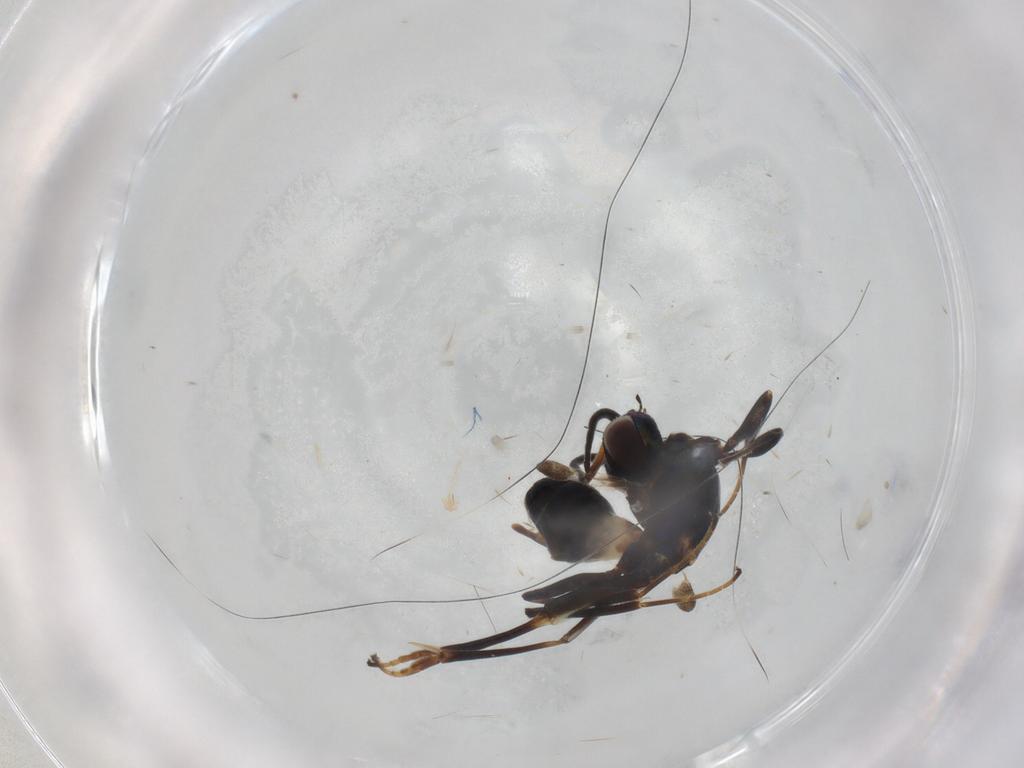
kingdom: Animalia
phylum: Arthropoda
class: Insecta
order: Hymenoptera
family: Eupelmidae
